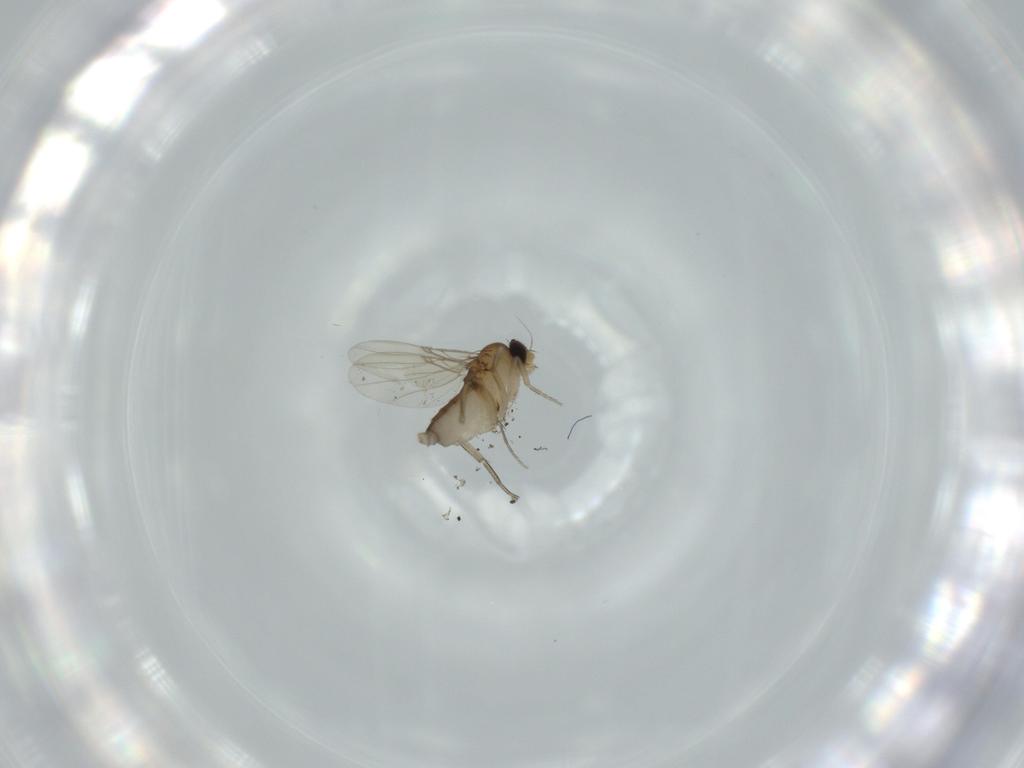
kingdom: Animalia
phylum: Arthropoda
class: Insecta
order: Diptera
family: Phoridae
